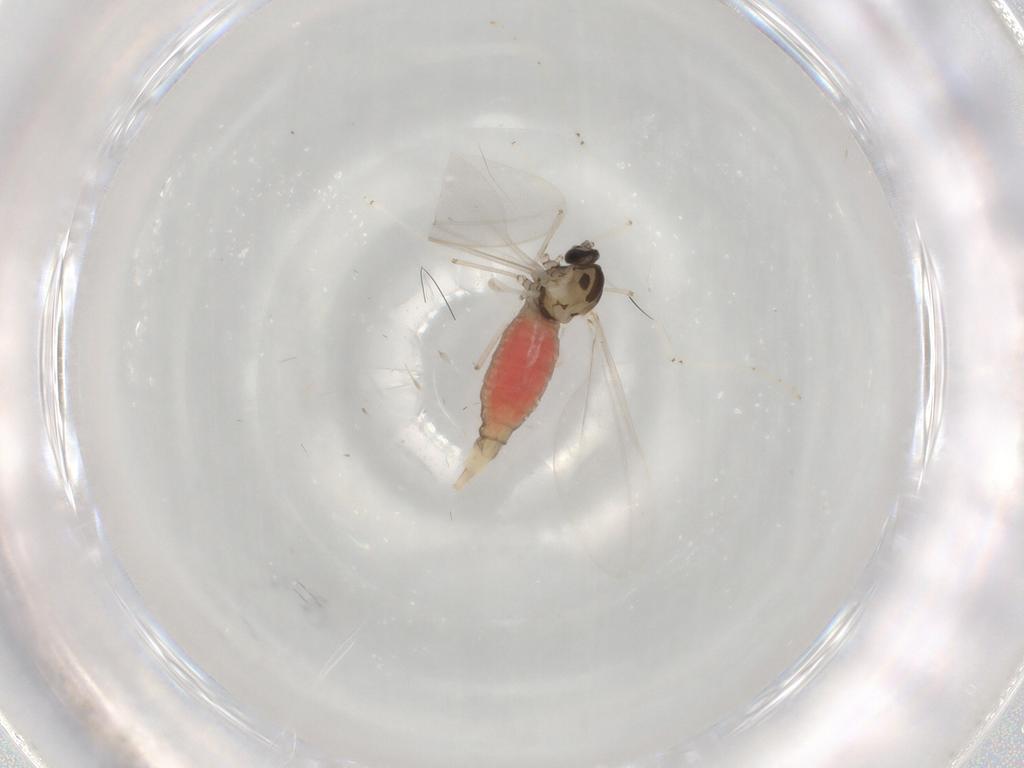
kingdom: Animalia
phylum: Arthropoda
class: Insecta
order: Diptera
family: Cecidomyiidae
